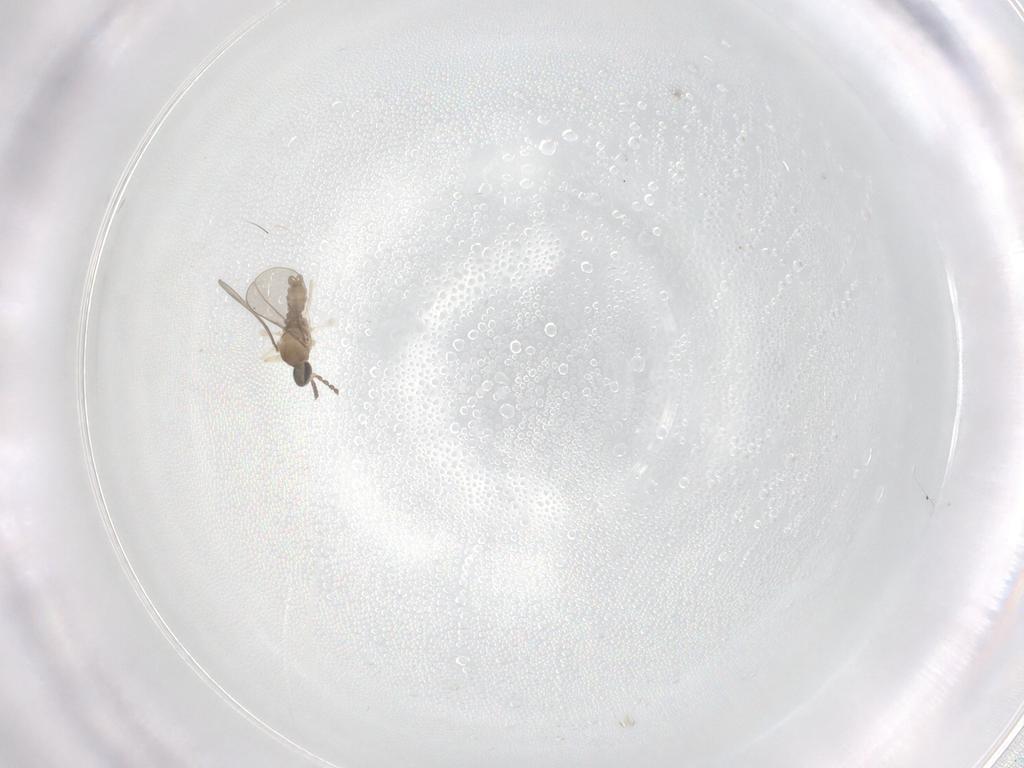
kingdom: Animalia
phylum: Arthropoda
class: Insecta
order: Diptera
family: Cecidomyiidae
